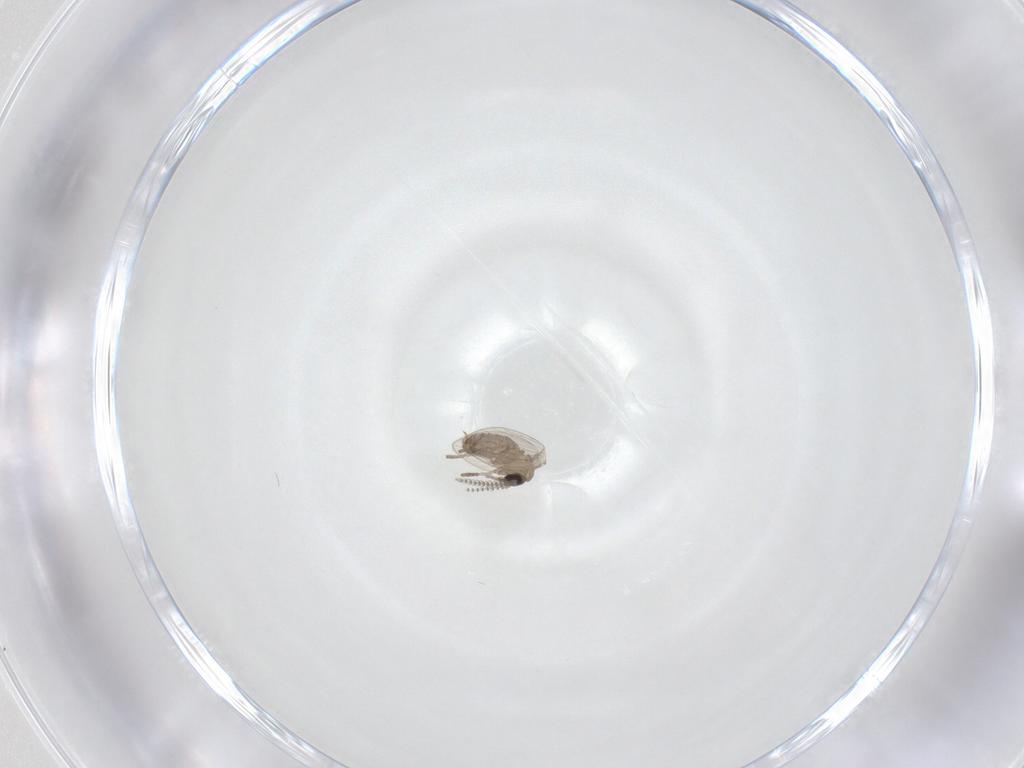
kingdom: Animalia
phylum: Arthropoda
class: Insecta
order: Diptera
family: Psychodidae
